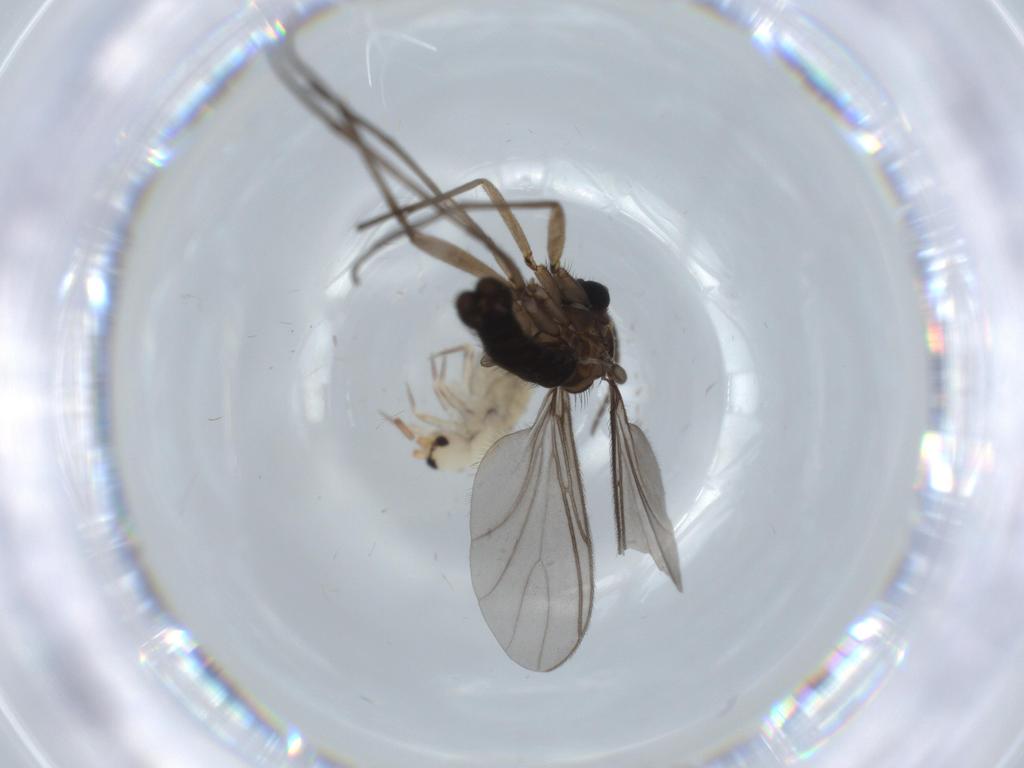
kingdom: Animalia
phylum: Arthropoda
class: Collembola
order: Entomobryomorpha
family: Entomobryidae
